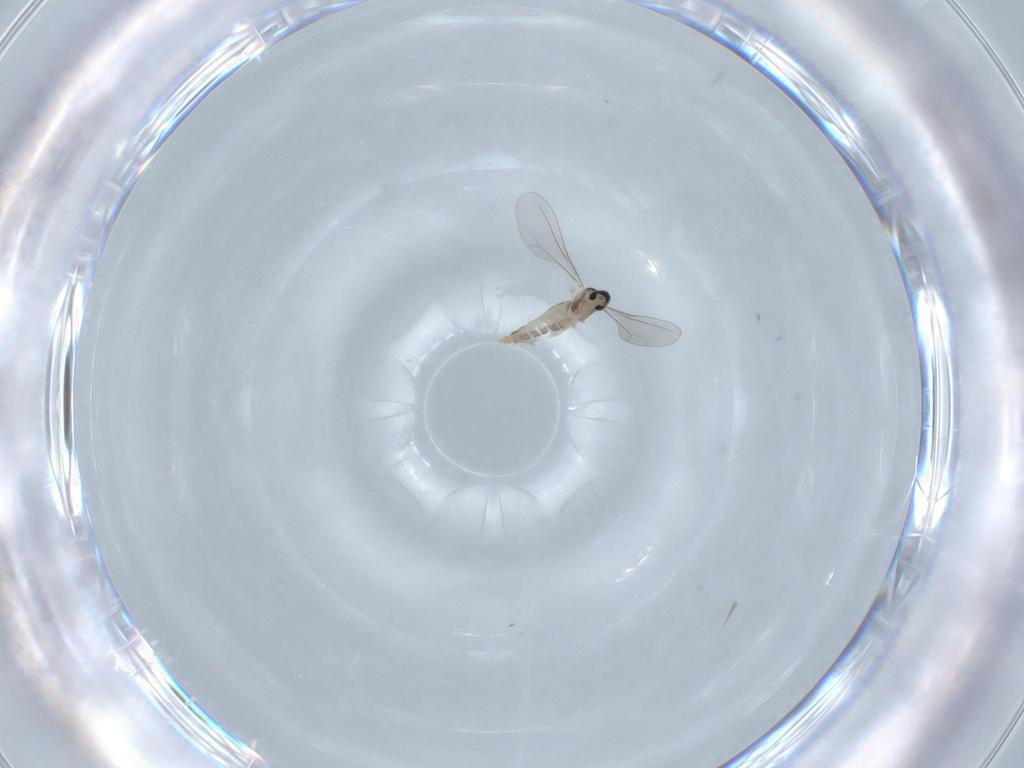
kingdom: Animalia
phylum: Arthropoda
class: Insecta
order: Diptera
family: Cecidomyiidae
